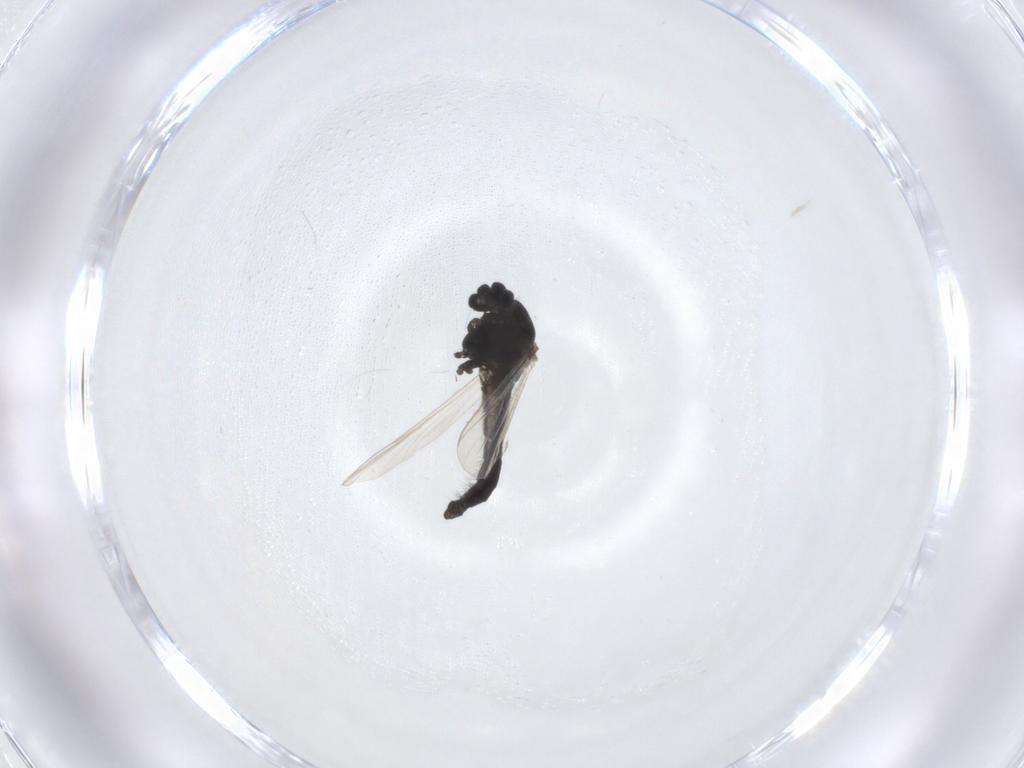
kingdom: Animalia
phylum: Arthropoda
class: Insecta
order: Diptera
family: Chironomidae
